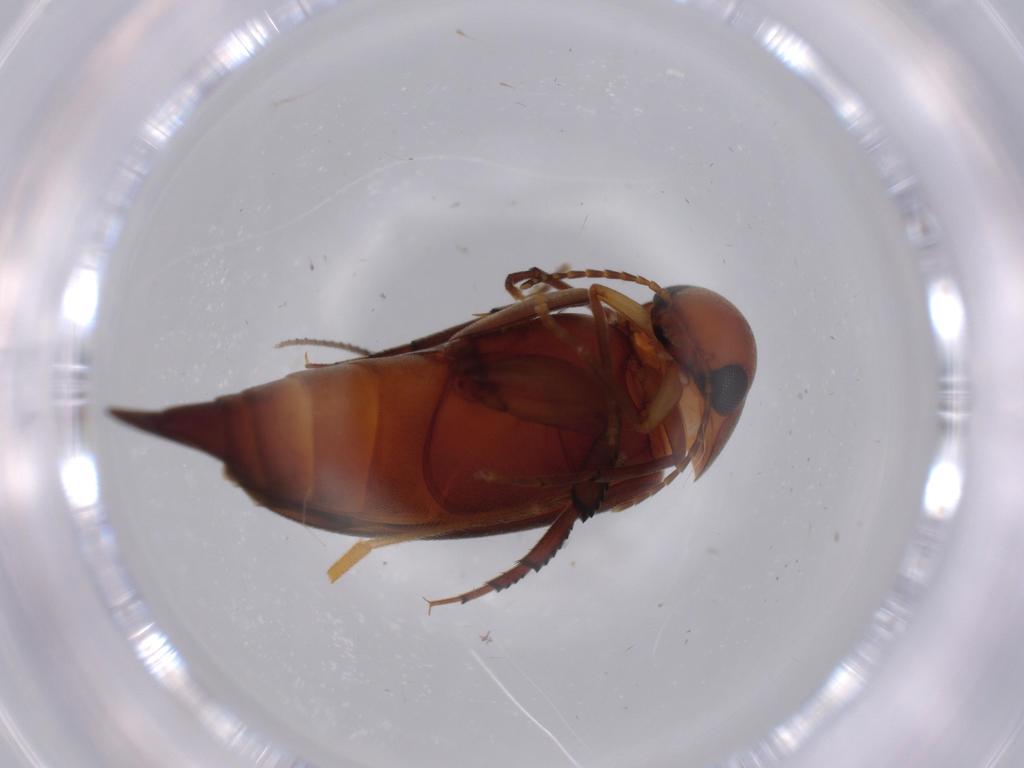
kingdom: Animalia
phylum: Arthropoda
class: Insecta
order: Coleoptera
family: Mordellidae
